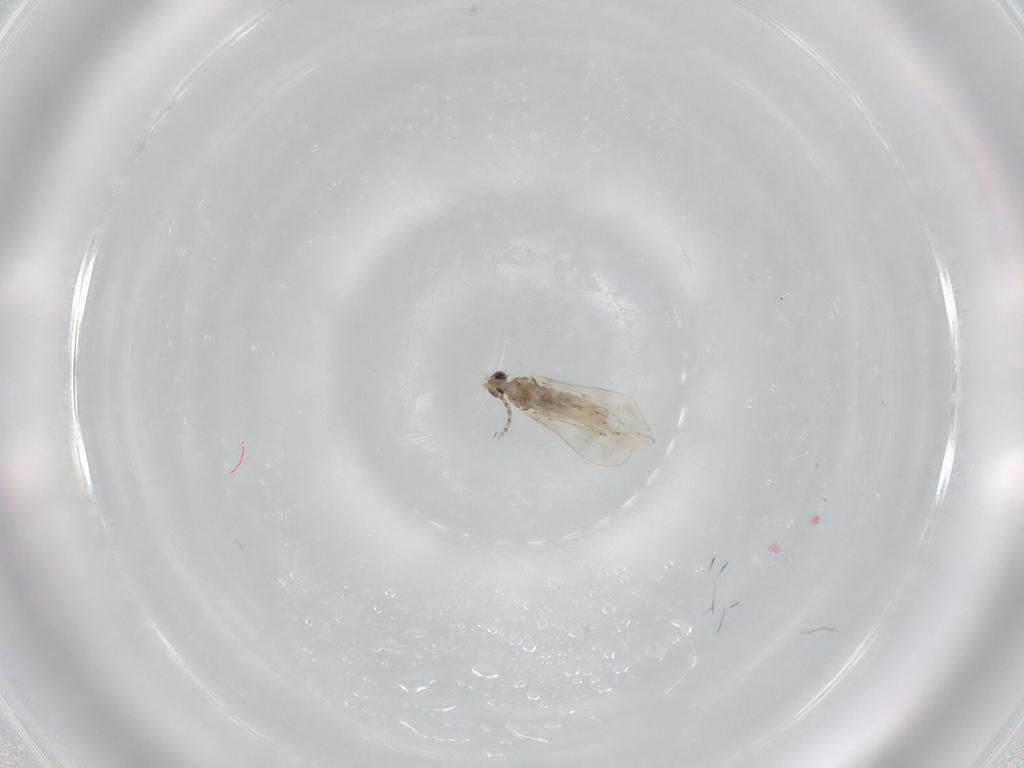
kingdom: Animalia
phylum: Arthropoda
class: Insecta
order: Diptera
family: Cecidomyiidae
